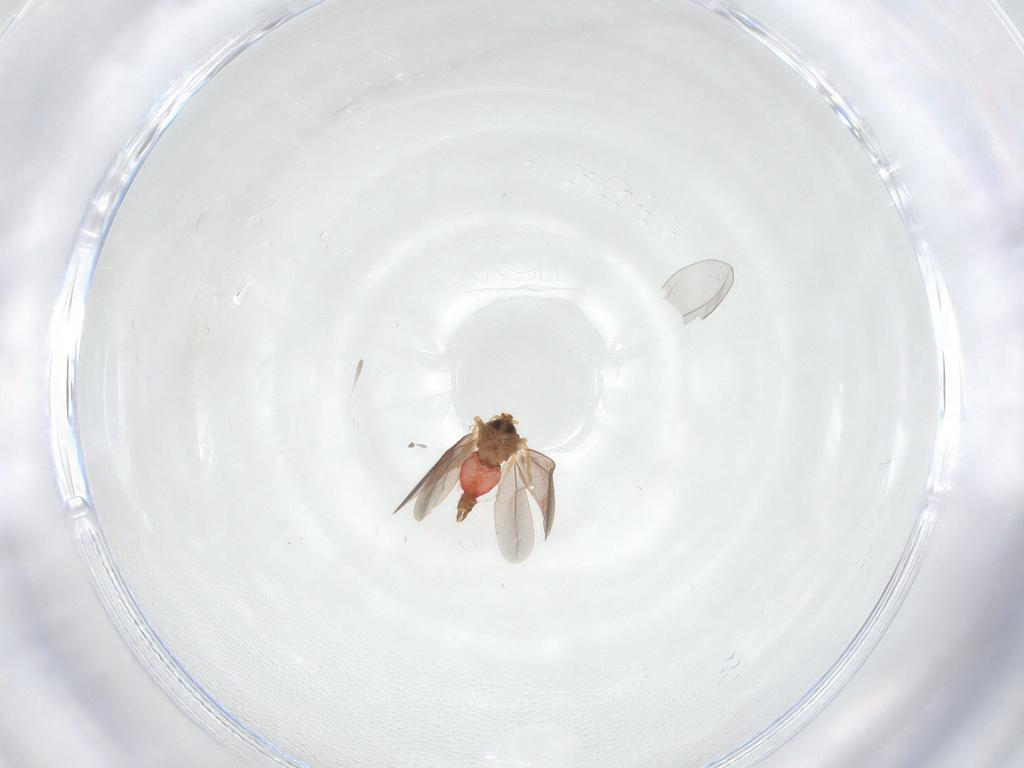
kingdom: Animalia
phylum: Arthropoda
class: Insecta
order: Hemiptera
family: Aleyrodidae
